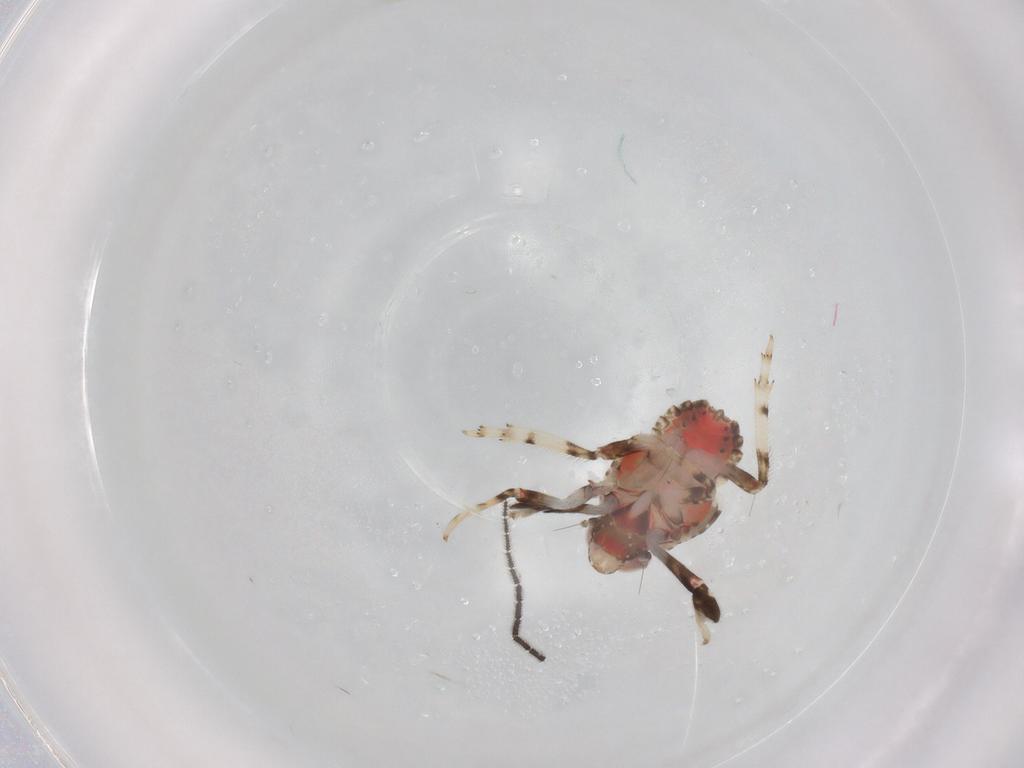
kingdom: Animalia
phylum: Arthropoda
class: Insecta
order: Hemiptera
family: Issidae
